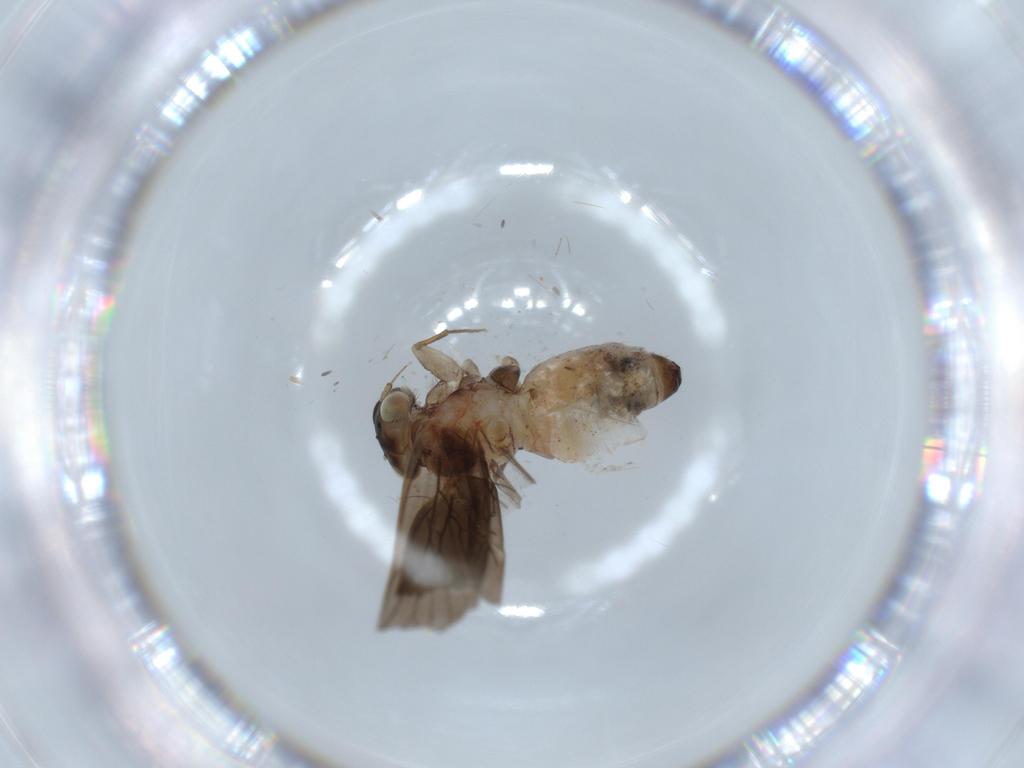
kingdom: Animalia
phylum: Arthropoda
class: Insecta
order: Psocodea
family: Lepidopsocidae
